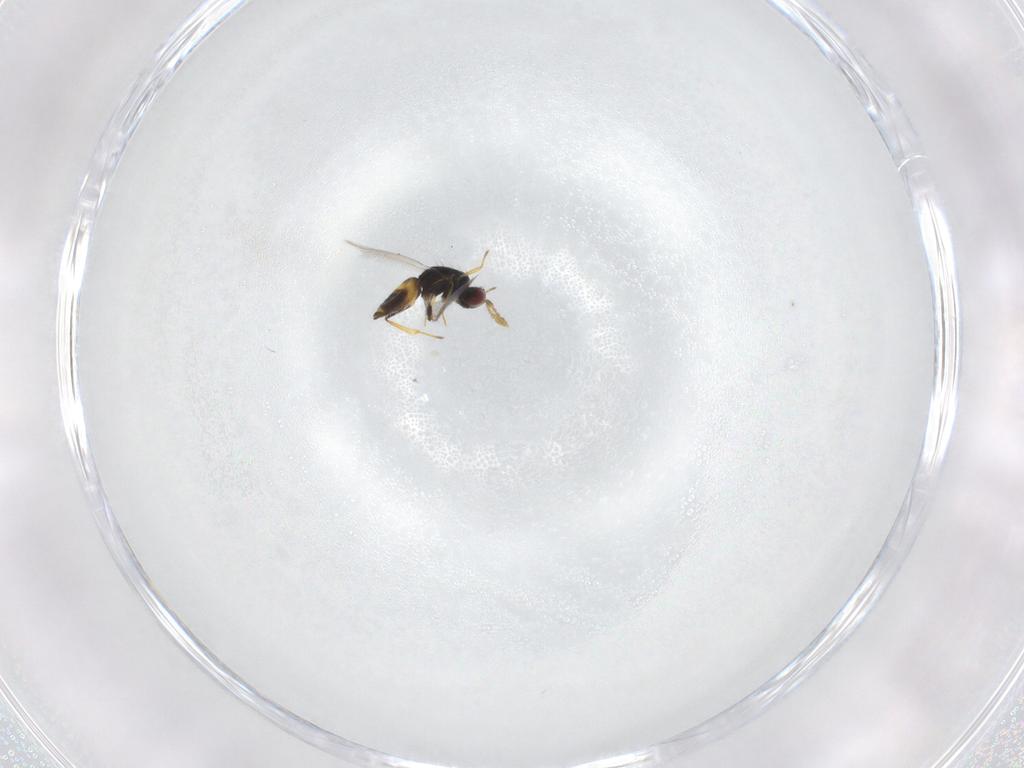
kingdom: Animalia
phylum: Arthropoda
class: Insecta
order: Hymenoptera
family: Eulophidae
